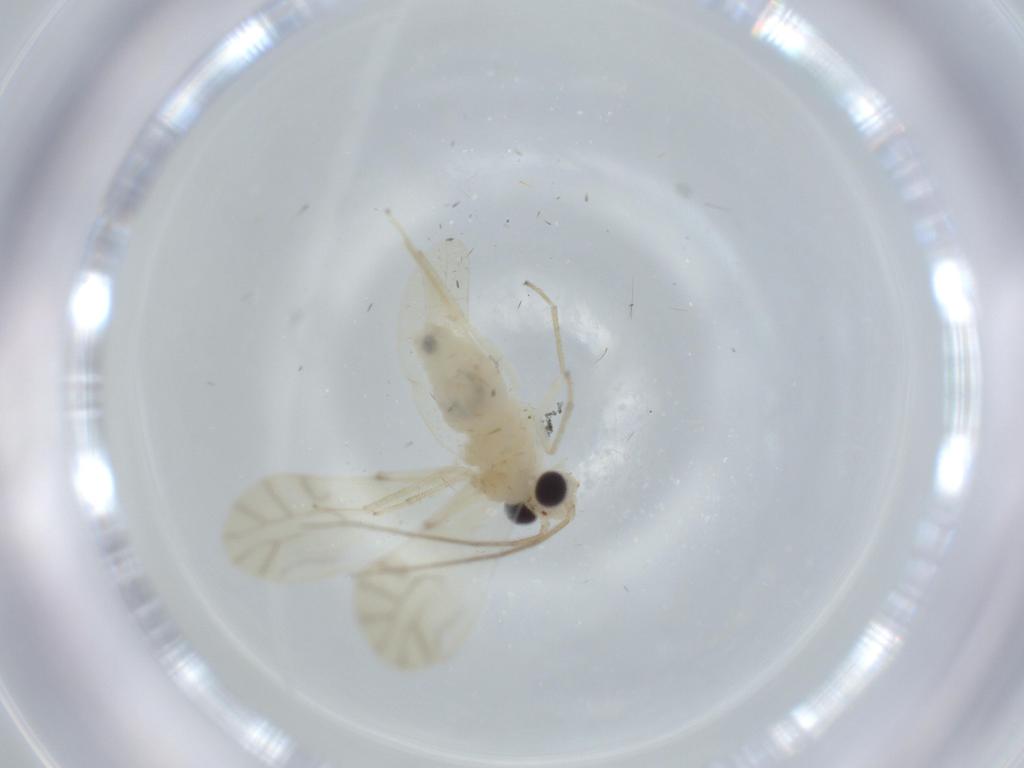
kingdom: Animalia
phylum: Arthropoda
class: Insecta
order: Psocodea
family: Caeciliusidae
